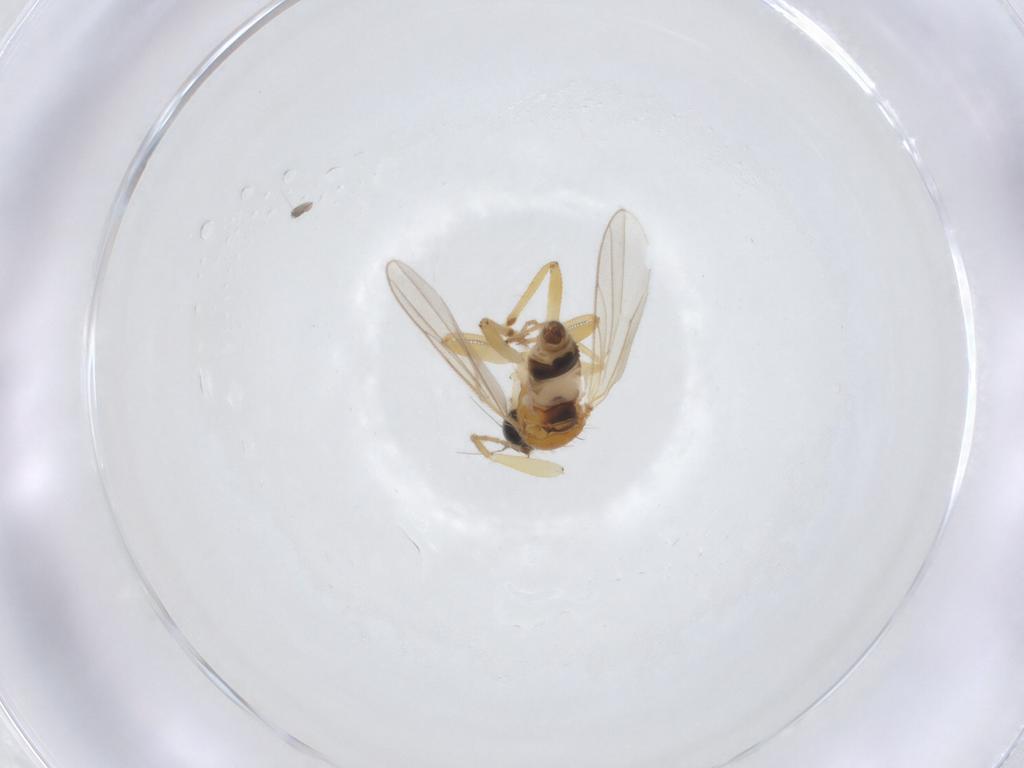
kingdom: Animalia
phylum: Arthropoda
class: Insecta
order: Diptera
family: Hybotidae
